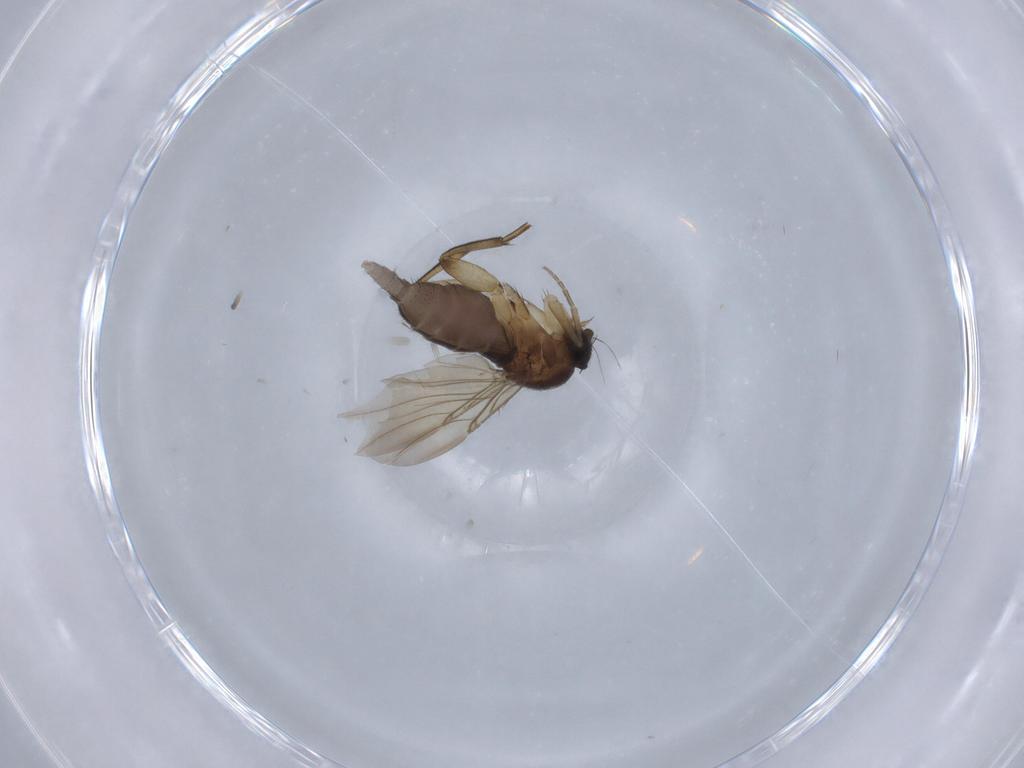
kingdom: Animalia
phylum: Arthropoda
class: Insecta
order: Diptera
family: Phoridae
